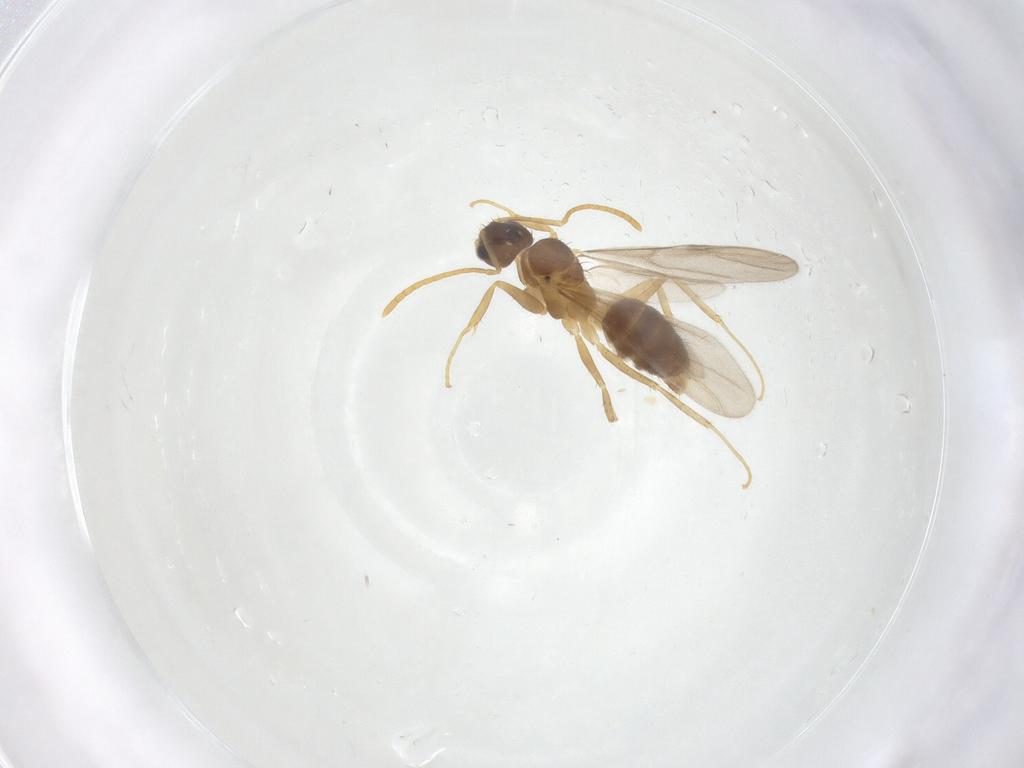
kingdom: Animalia
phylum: Arthropoda
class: Insecta
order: Hymenoptera
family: Formicidae
